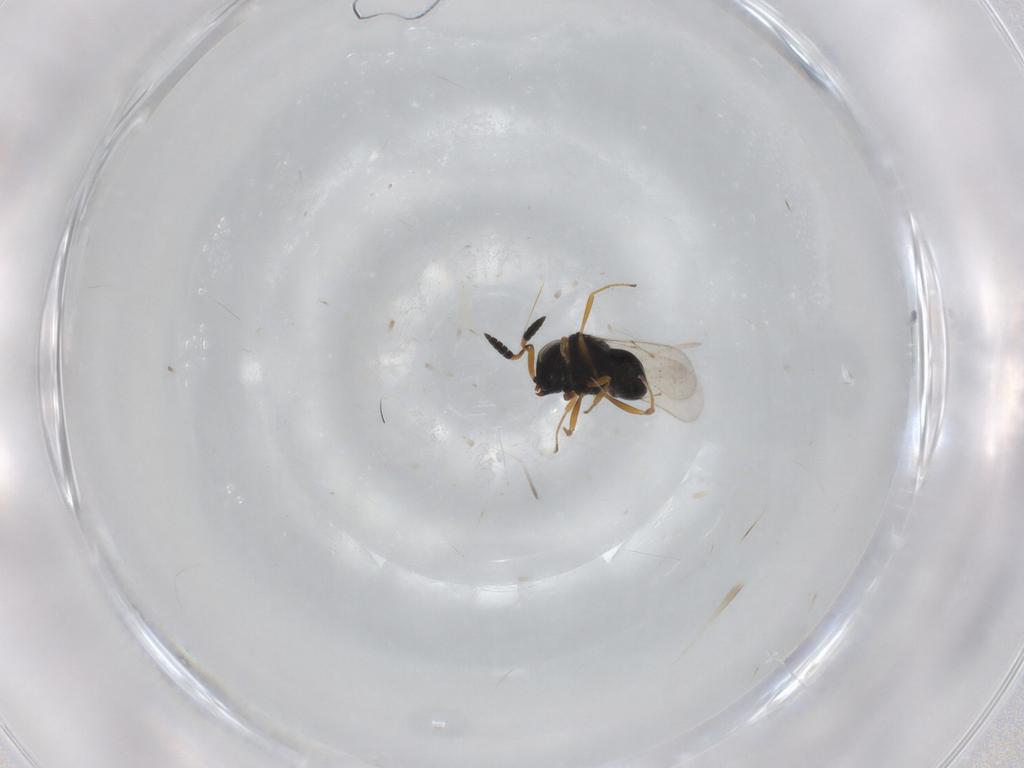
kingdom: Animalia
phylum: Arthropoda
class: Insecta
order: Hymenoptera
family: Scelionidae
